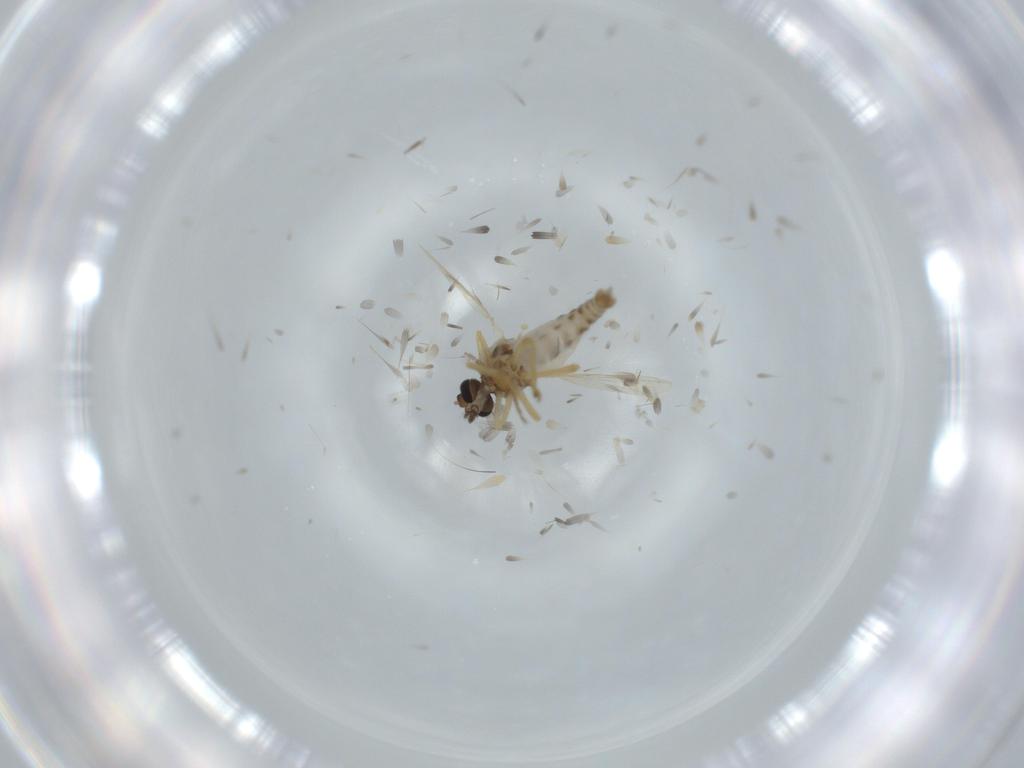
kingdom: Animalia
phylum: Arthropoda
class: Insecta
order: Diptera
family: Ceratopogonidae
